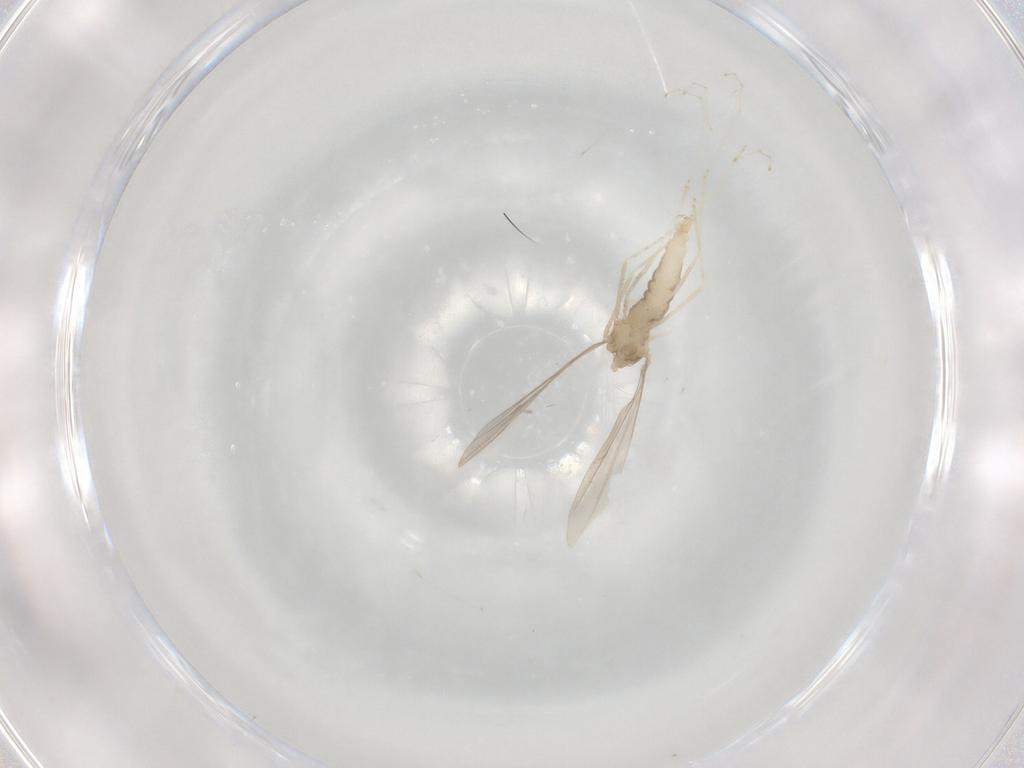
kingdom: Animalia
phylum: Arthropoda
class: Insecta
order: Diptera
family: Cecidomyiidae
